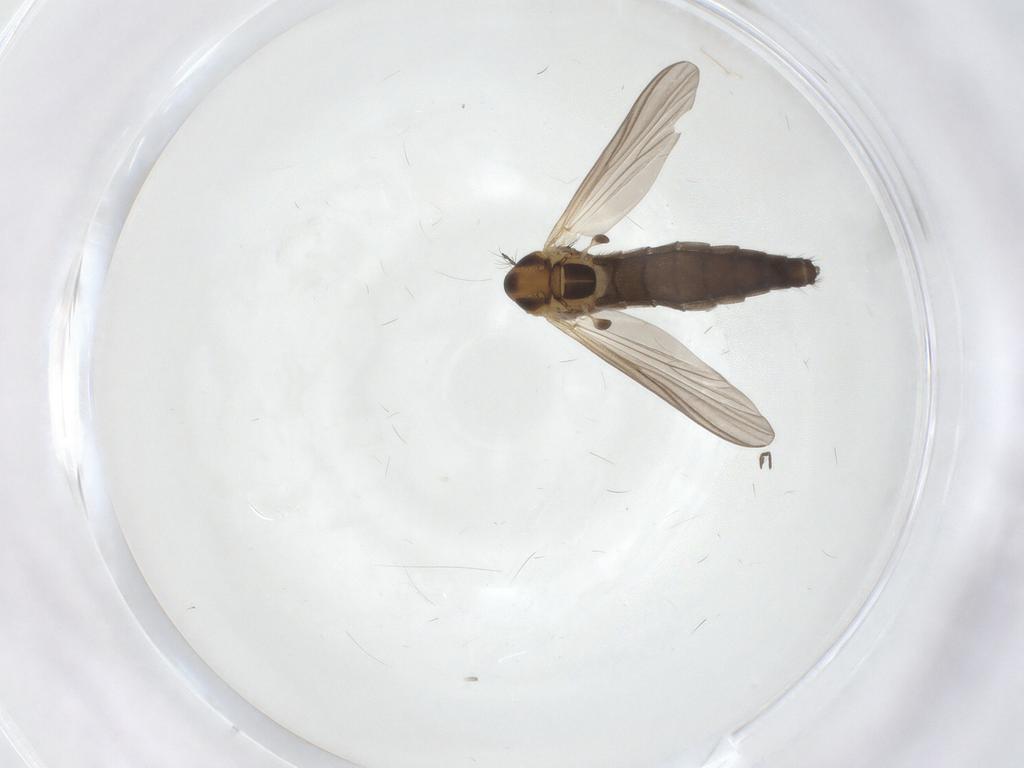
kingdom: Animalia
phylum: Arthropoda
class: Insecta
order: Diptera
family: Chironomidae
